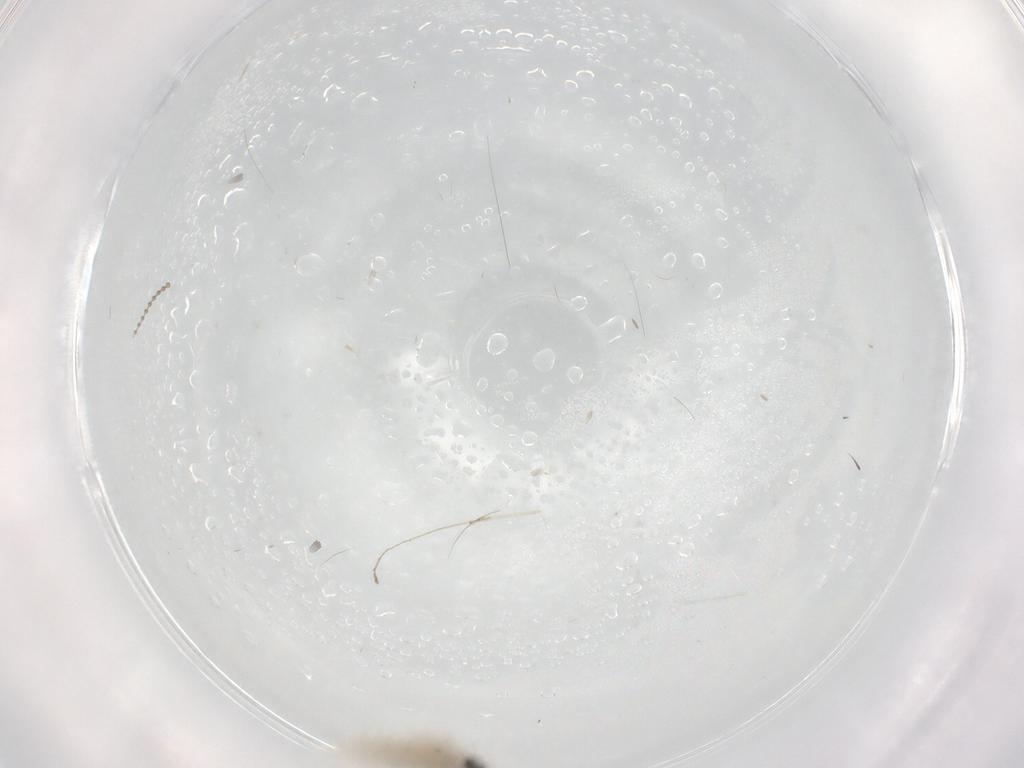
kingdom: Animalia
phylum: Arthropoda
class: Insecta
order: Diptera
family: Cecidomyiidae
